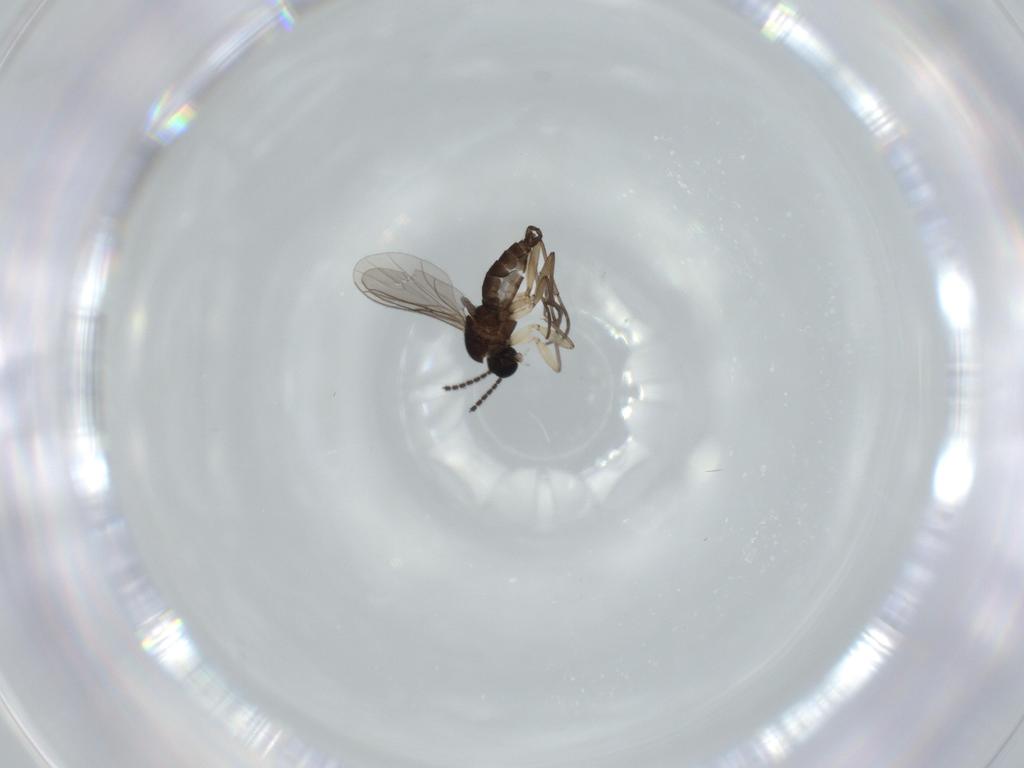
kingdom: Animalia
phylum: Arthropoda
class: Insecta
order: Diptera
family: Sciaridae
